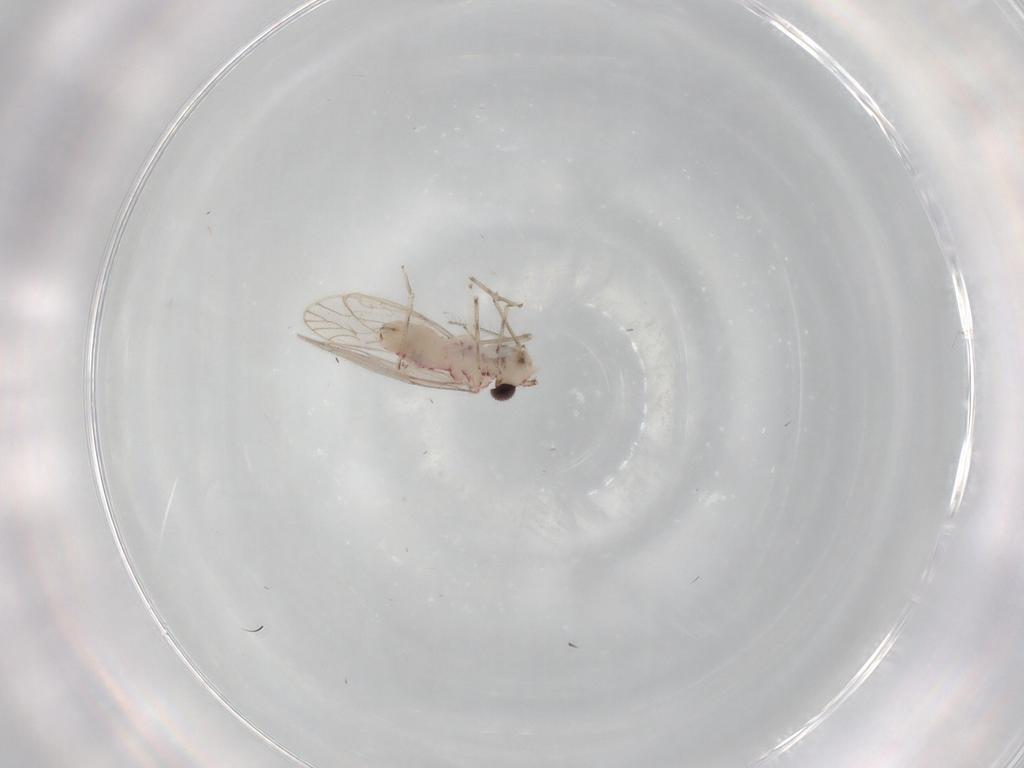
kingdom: Animalia
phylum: Arthropoda
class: Insecta
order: Psocodea
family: Caeciliusidae
